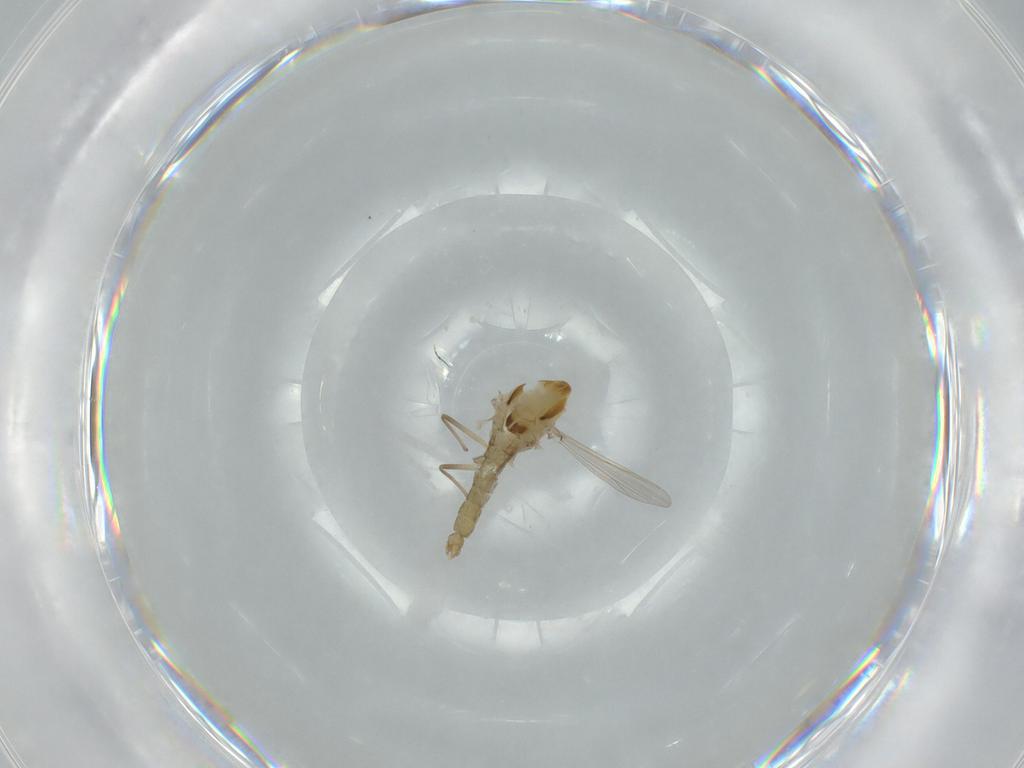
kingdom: Animalia
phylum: Arthropoda
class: Insecta
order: Diptera
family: Chironomidae
